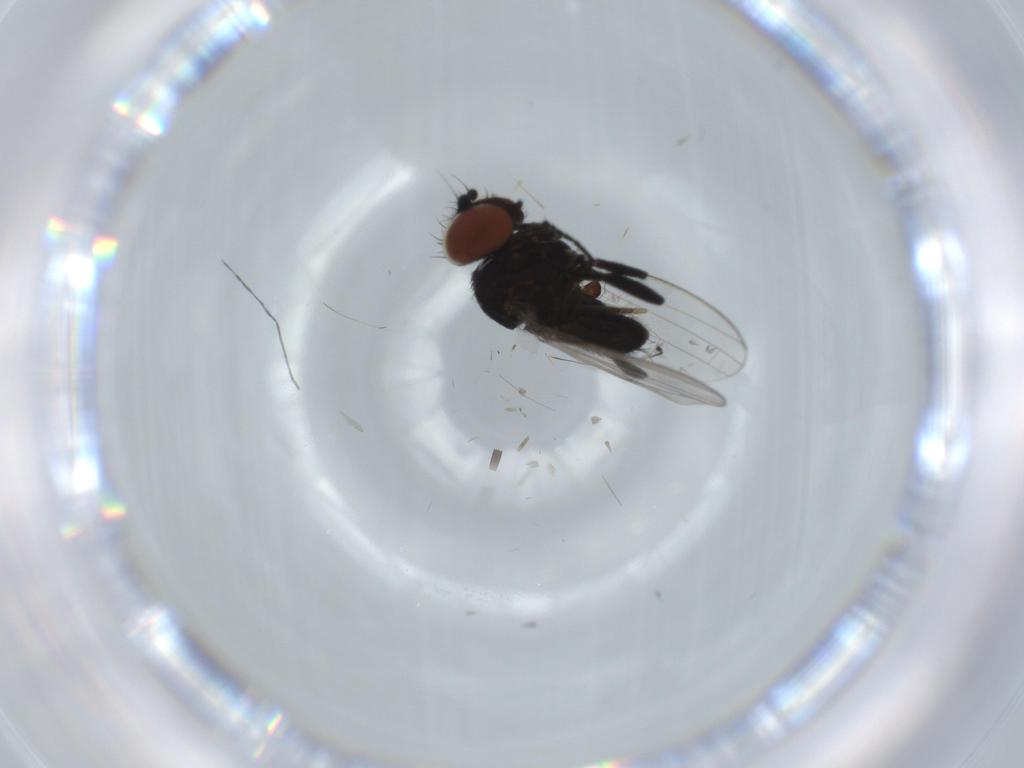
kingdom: Animalia
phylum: Arthropoda
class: Insecta
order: Diptera
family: Milichiidae
